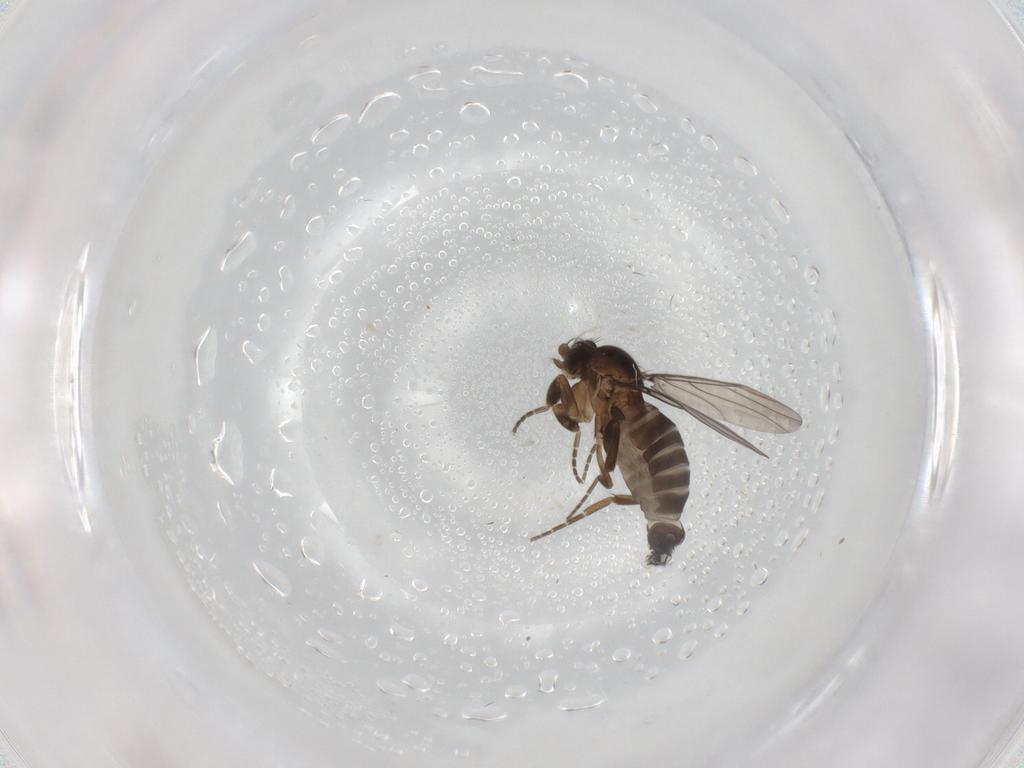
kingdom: Animalia
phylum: Arthropoda
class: Insecta
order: Diptera
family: Phoridae
